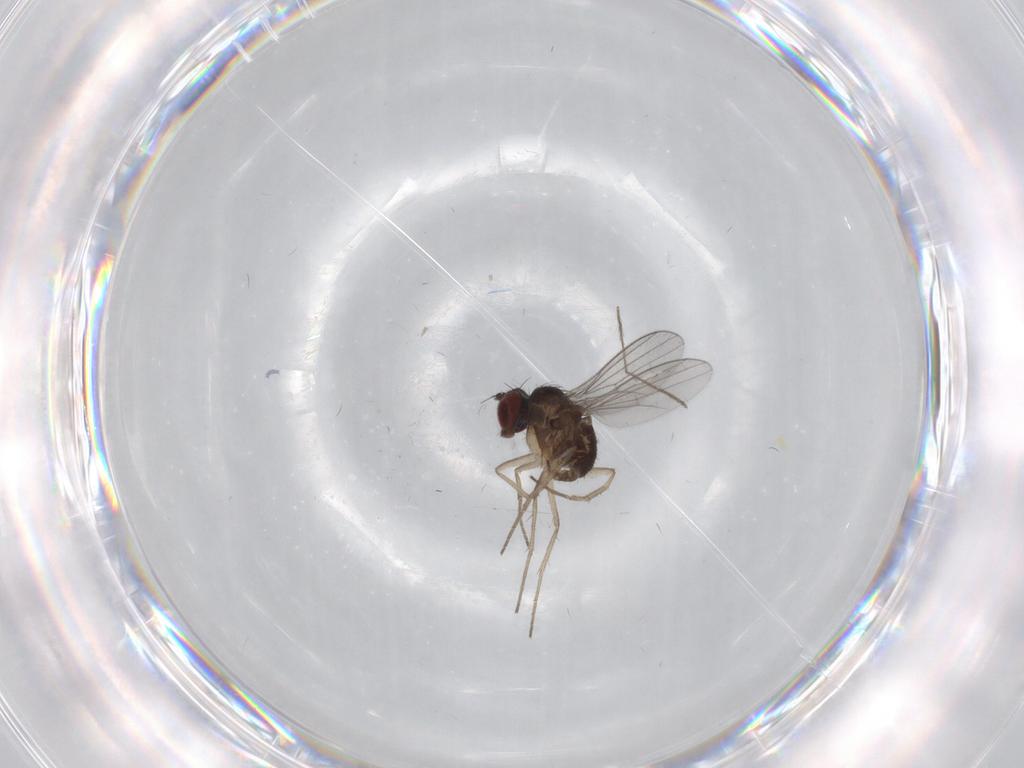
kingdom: Animalia
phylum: Arthropoda
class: Insecta
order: Diptera
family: Dolichopodidae
